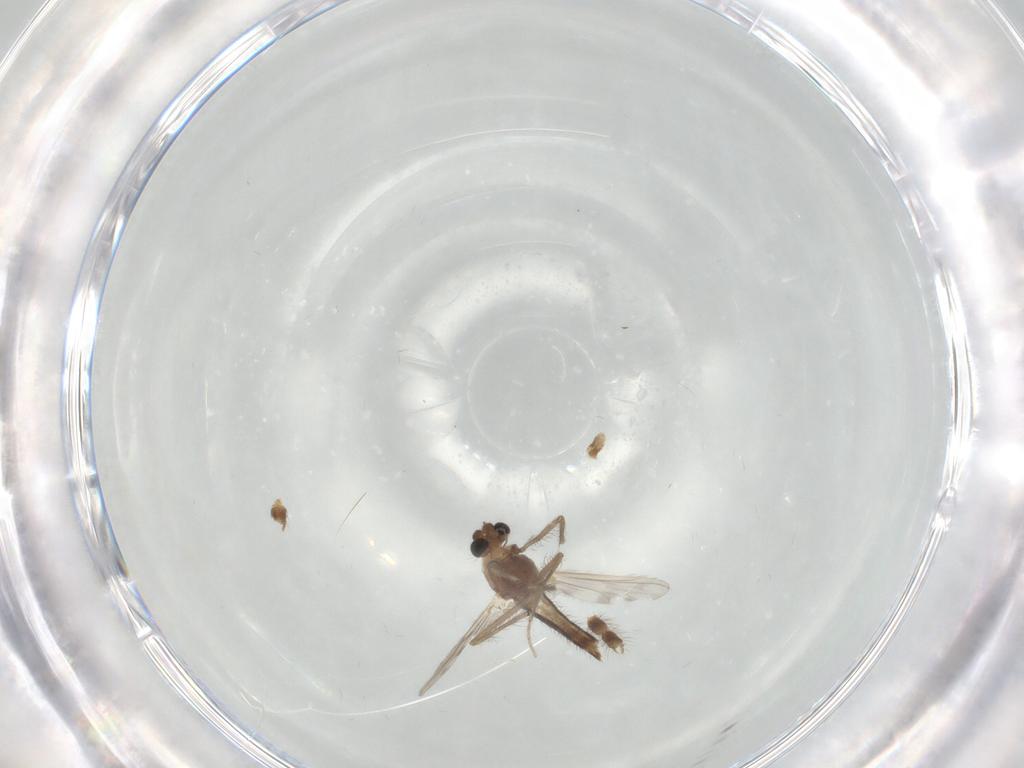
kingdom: Animalia
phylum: Arthropoda
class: Insecta
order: Diptera
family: Chironomidae
